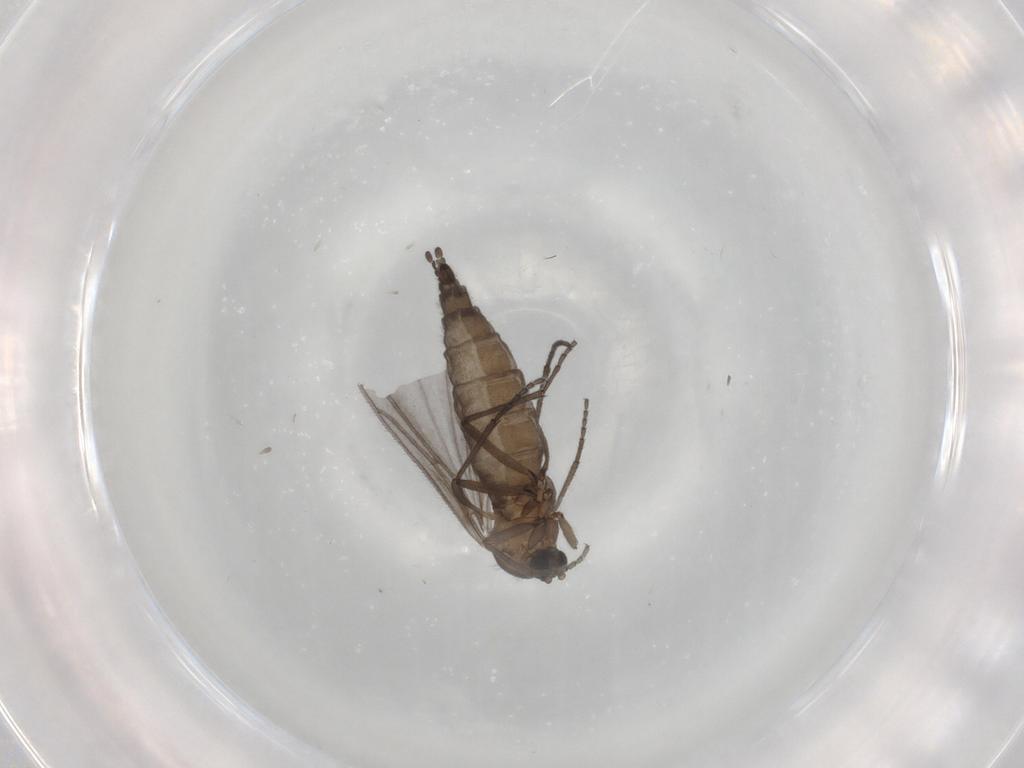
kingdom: Animalia
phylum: Arthropoda
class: Insecta
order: Diptera
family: Sciaridae
